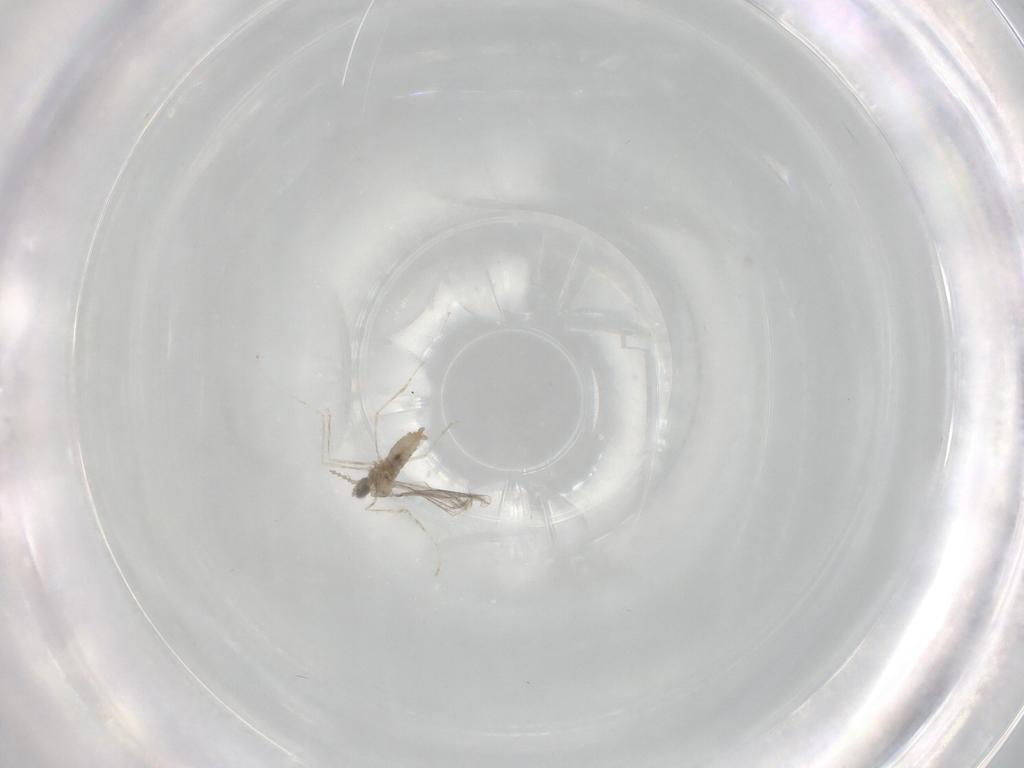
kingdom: Animalia
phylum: Arthropoda
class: Insecta
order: Diptera
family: Cecidomyiidae
